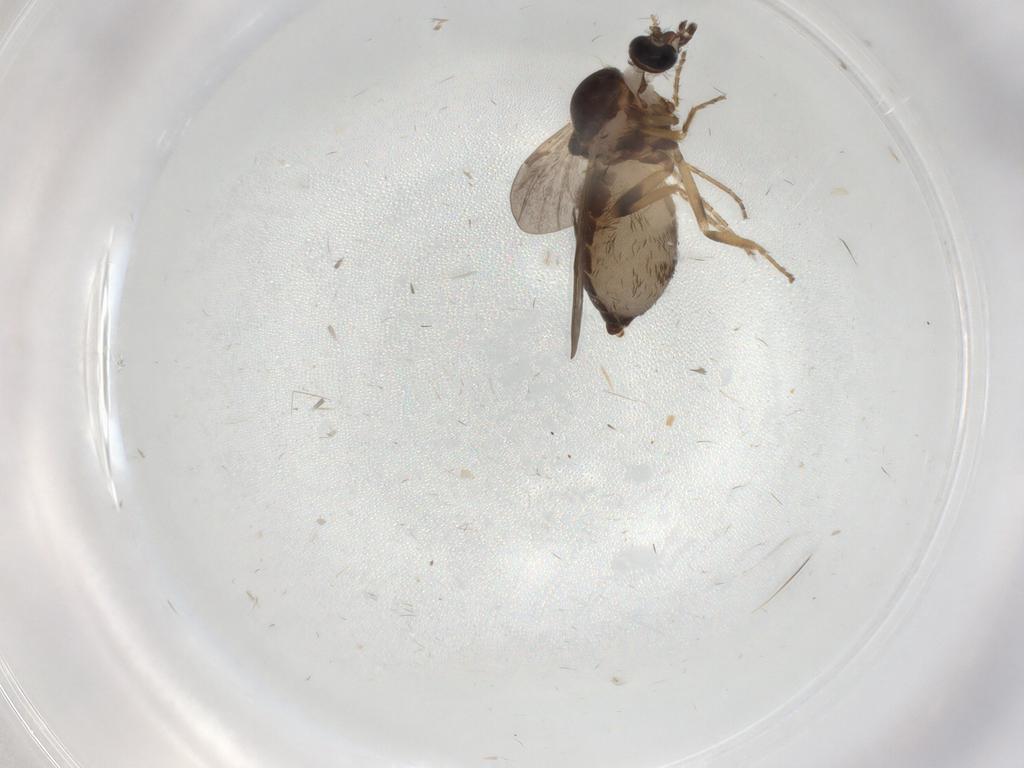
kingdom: Animalia
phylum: Arthropoda
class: Insecta
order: Diptera
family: Ceratopogonidae
